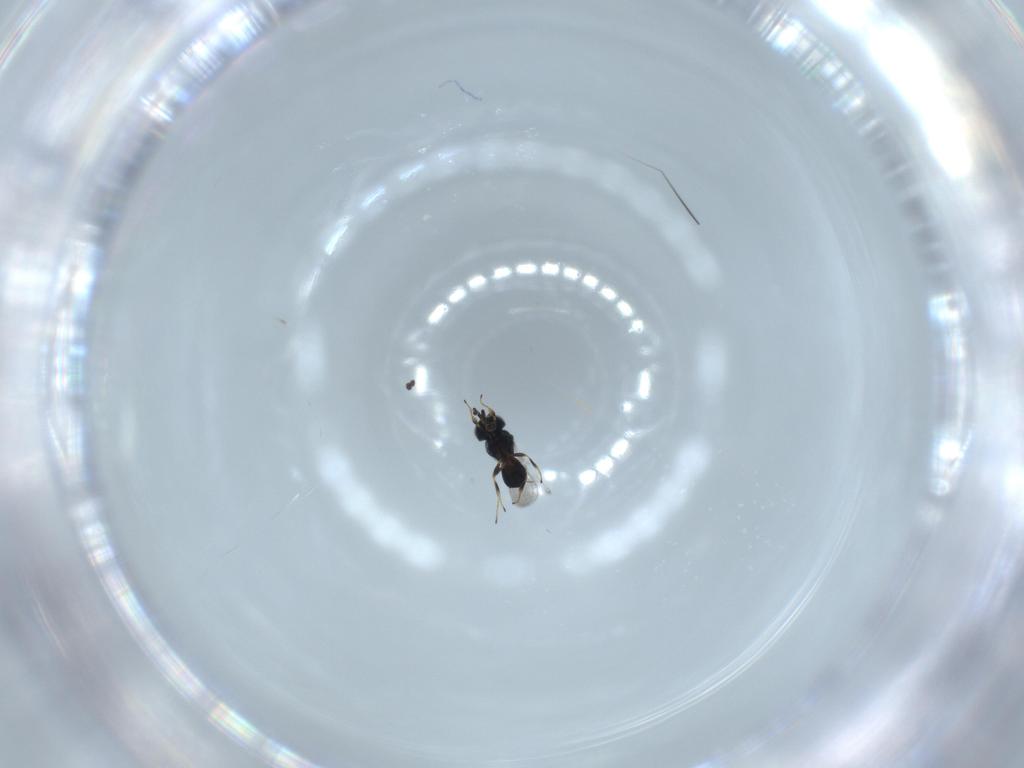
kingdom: Animalia
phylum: Arthropoda
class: Insecta
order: Hymenoptera
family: Scelionidae
